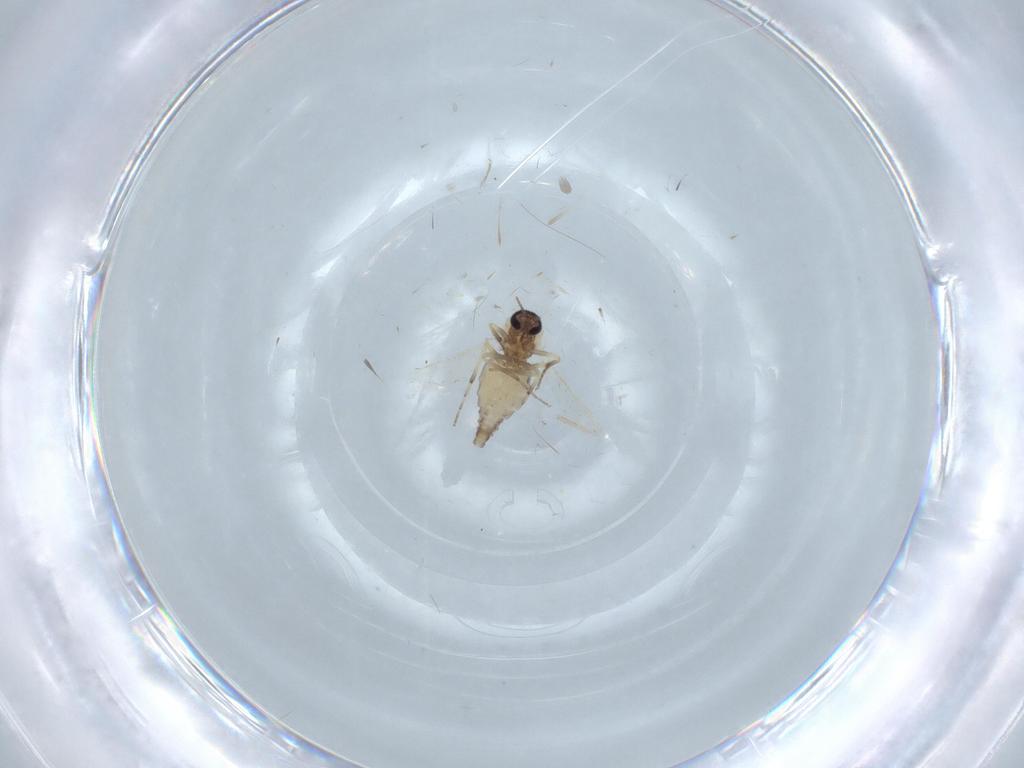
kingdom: Animalia
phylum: Arthropoda
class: Insecta
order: Diptera
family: Ceratopogonidae
